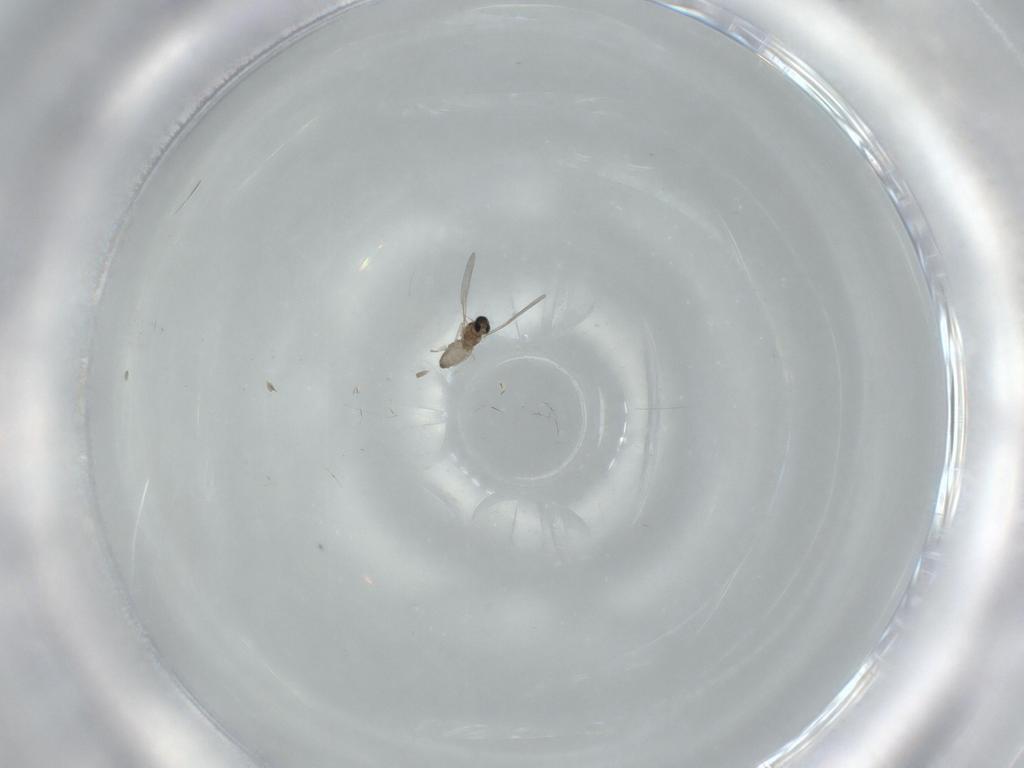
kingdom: Animalia
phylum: Arthropoda
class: Insecta
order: Diptera
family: Cecidomyiidae
